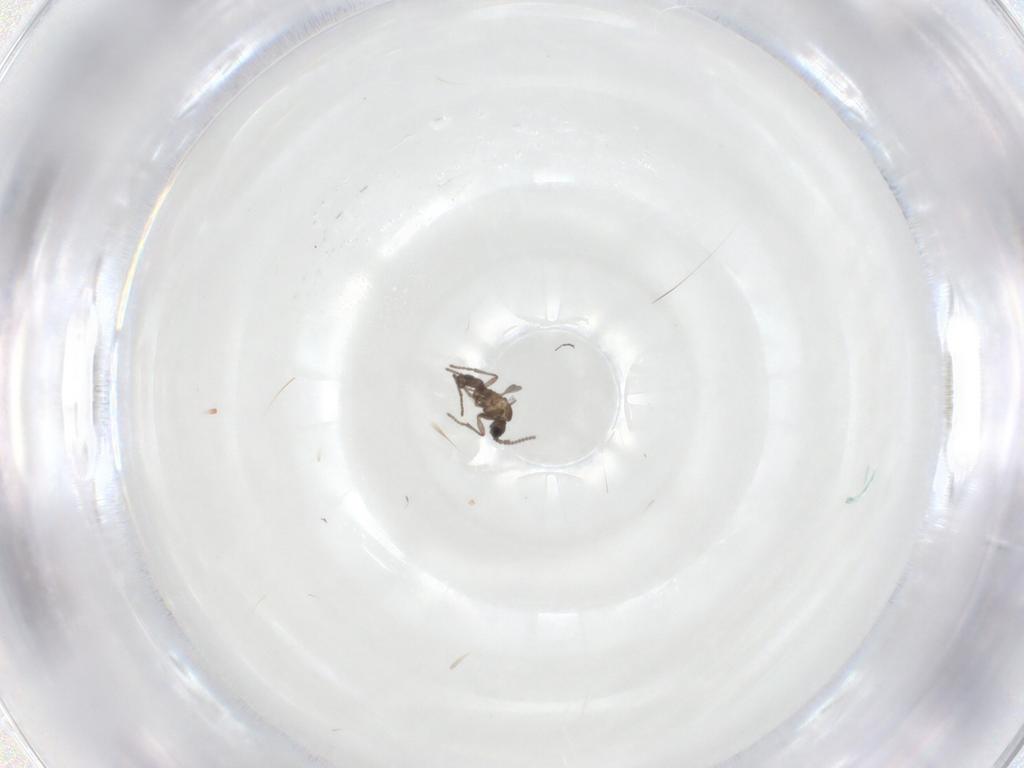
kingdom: Animalia
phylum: Arthropoda
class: Insecta
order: Diptera
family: Sciaridae
